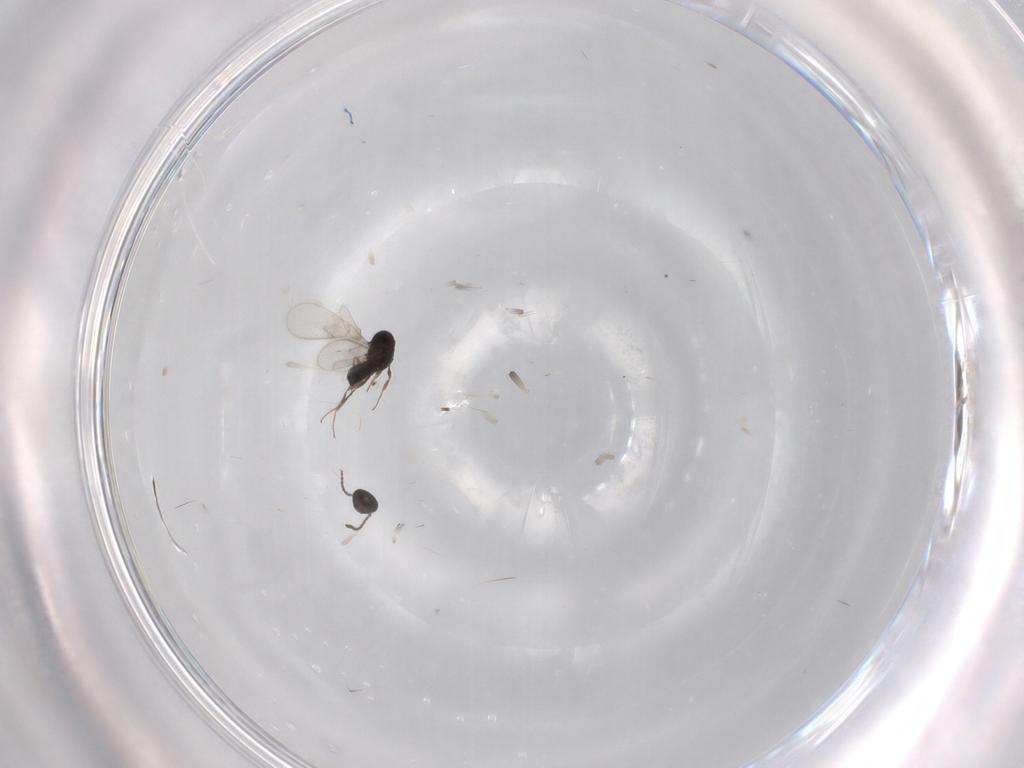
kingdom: Animalia
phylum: Arthropoda
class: Insecta
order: Hymenoptera
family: Scelionidae
